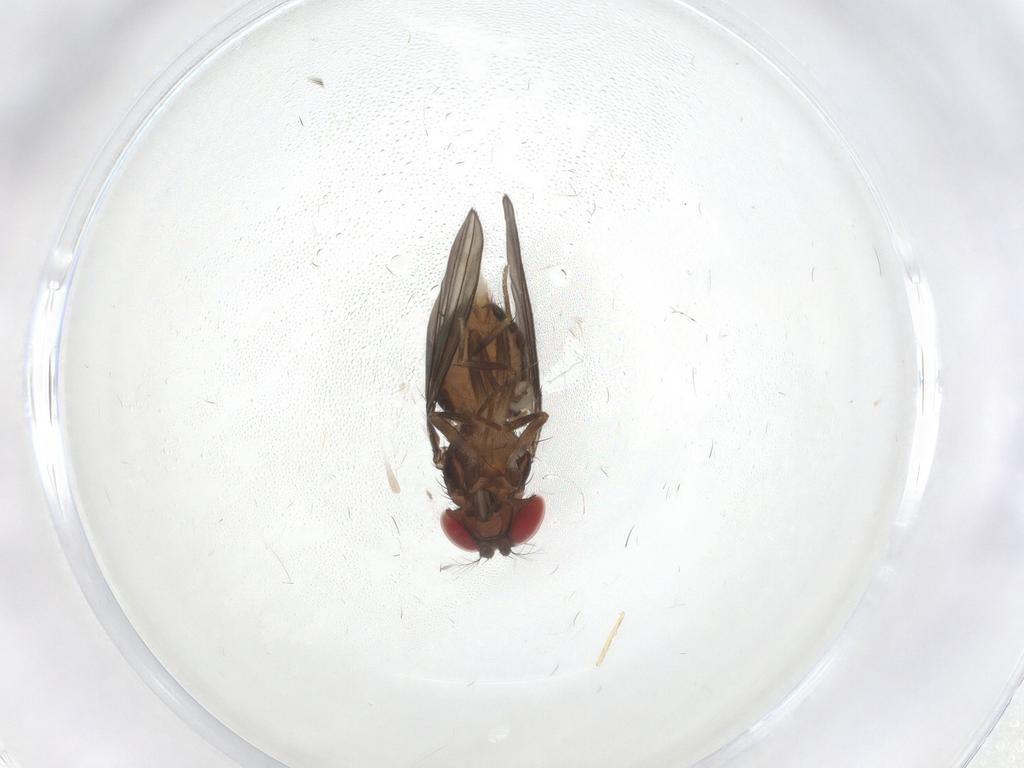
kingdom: Animalia
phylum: Arthropoda
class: Insecta
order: Diptera
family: Drosophilidae
